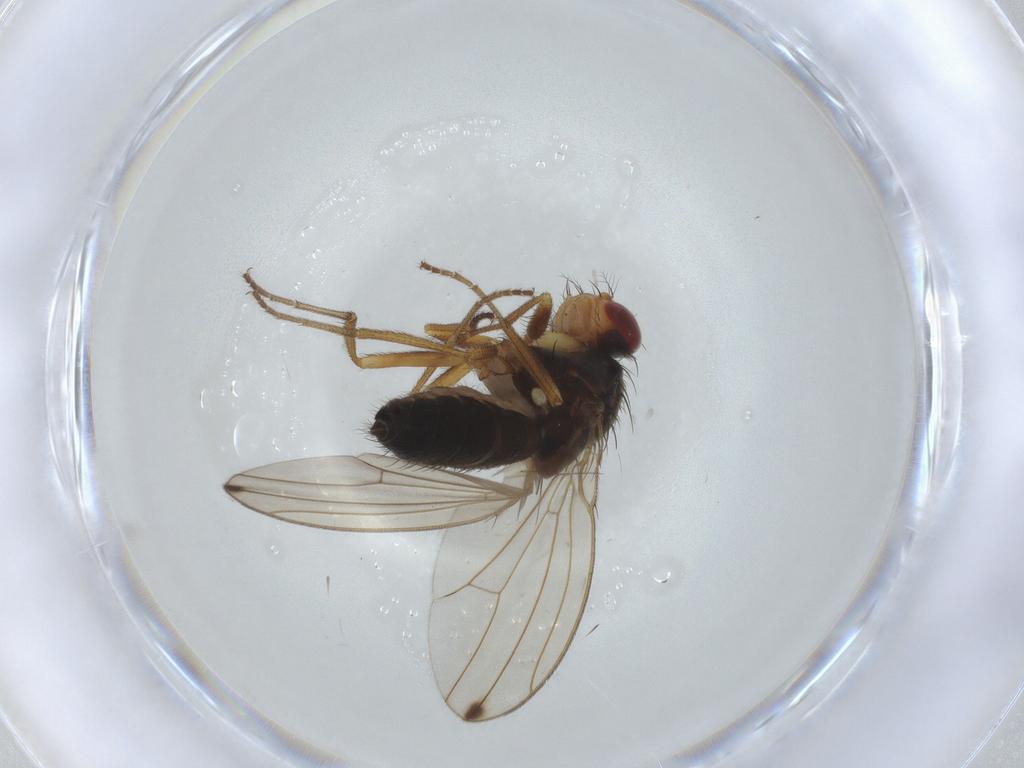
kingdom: Animalia
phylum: Arthropoda
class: Insecta
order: Diptera
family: Drosophilidae
